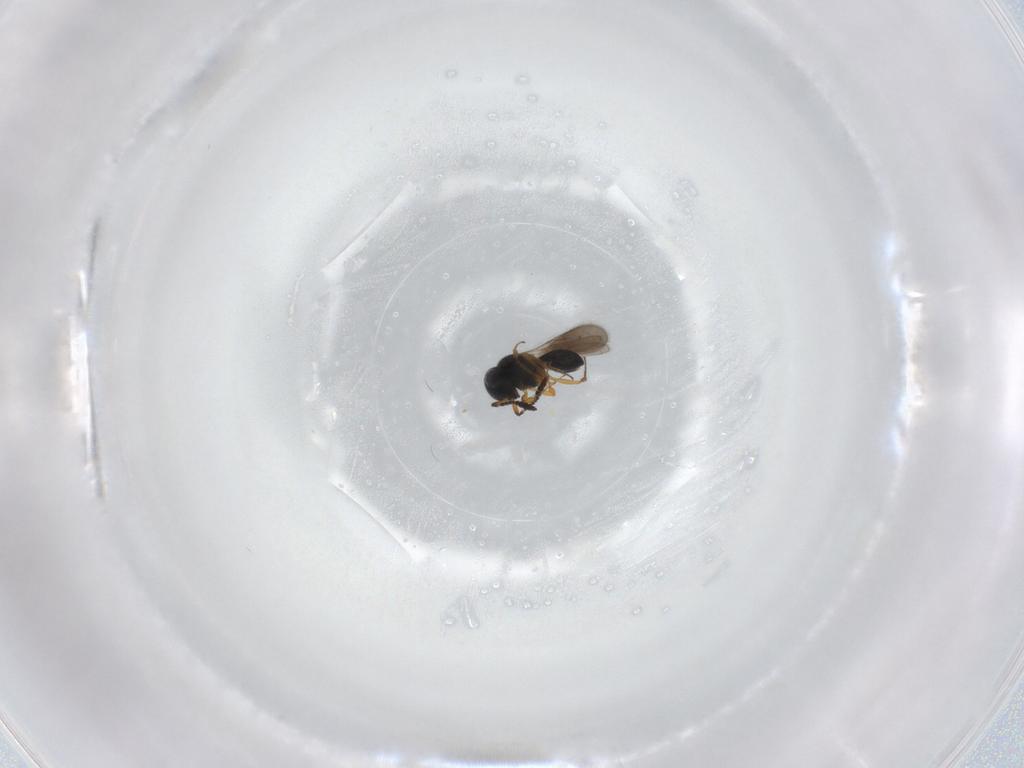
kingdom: Animalia
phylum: Arthropoda
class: Insecta
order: Hymenoptera
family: Scelionidae
